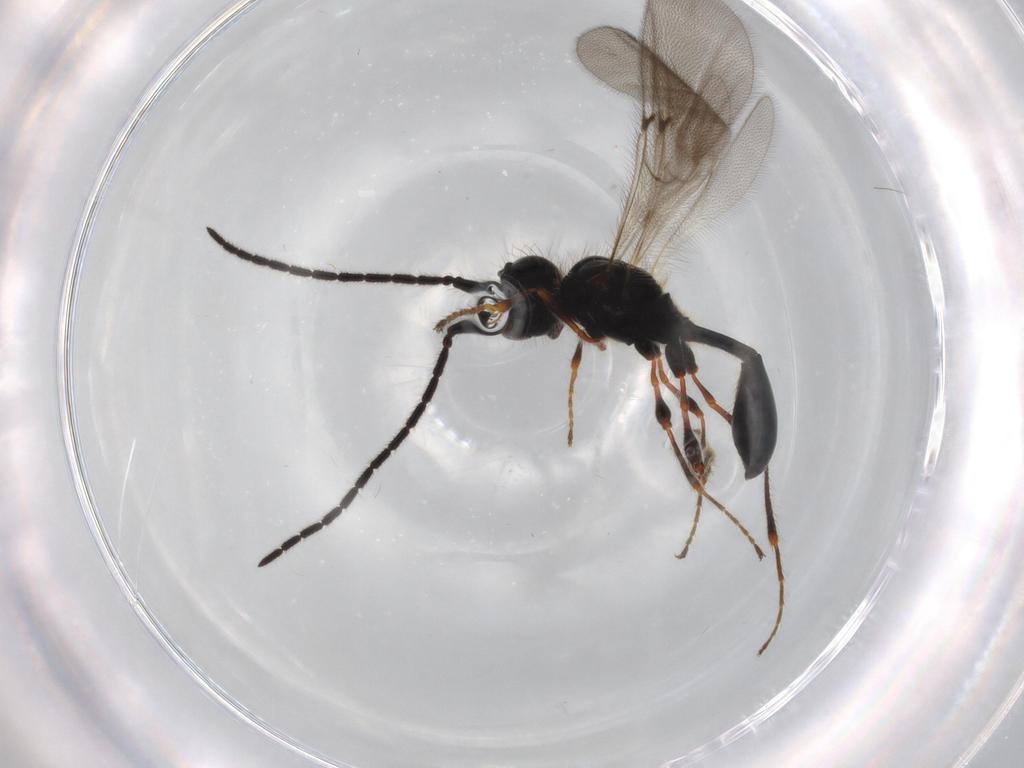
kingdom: Animalia
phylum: Arthropoda
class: Insecta
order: Hymenoptera
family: Diapriidae
